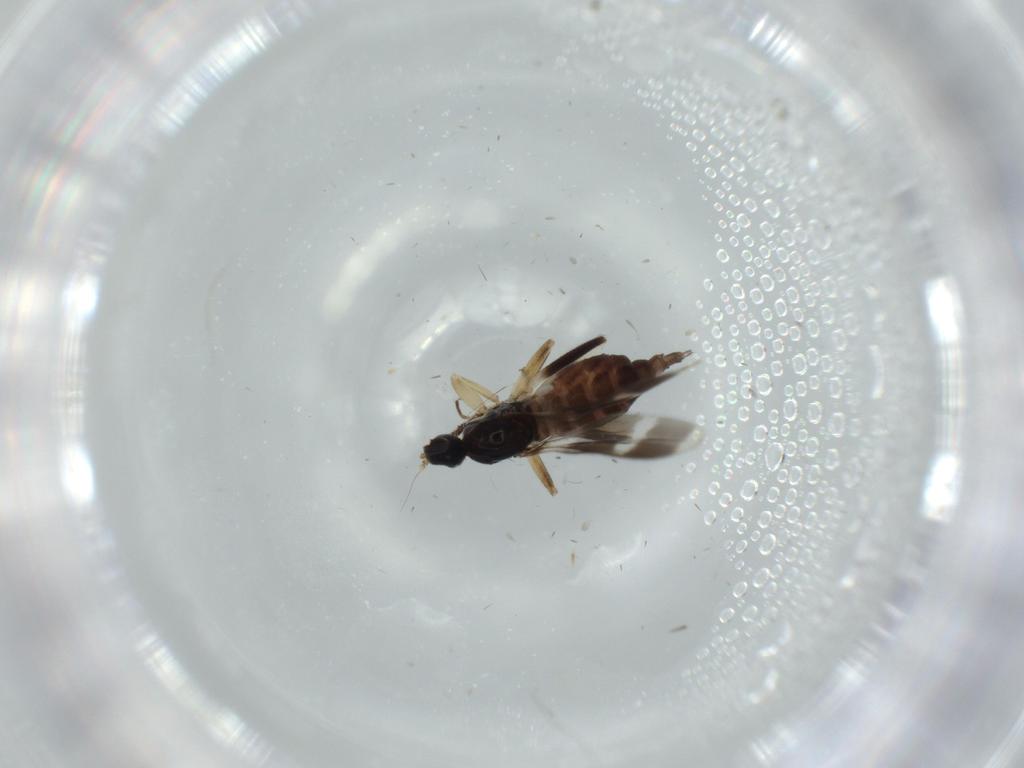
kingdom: Animalia
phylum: Arthropoda
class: Insecta
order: Diptera
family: Hybotidae
